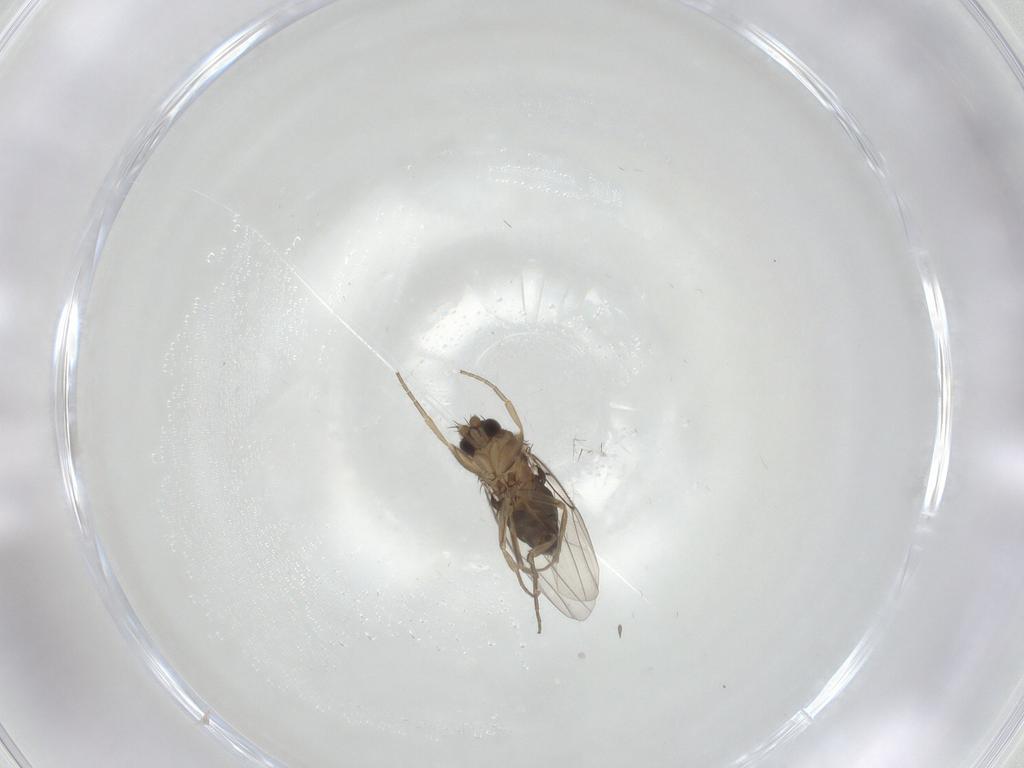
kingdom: Animalia
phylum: Arthropoda
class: Insecta
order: Diptera
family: Phoridae
